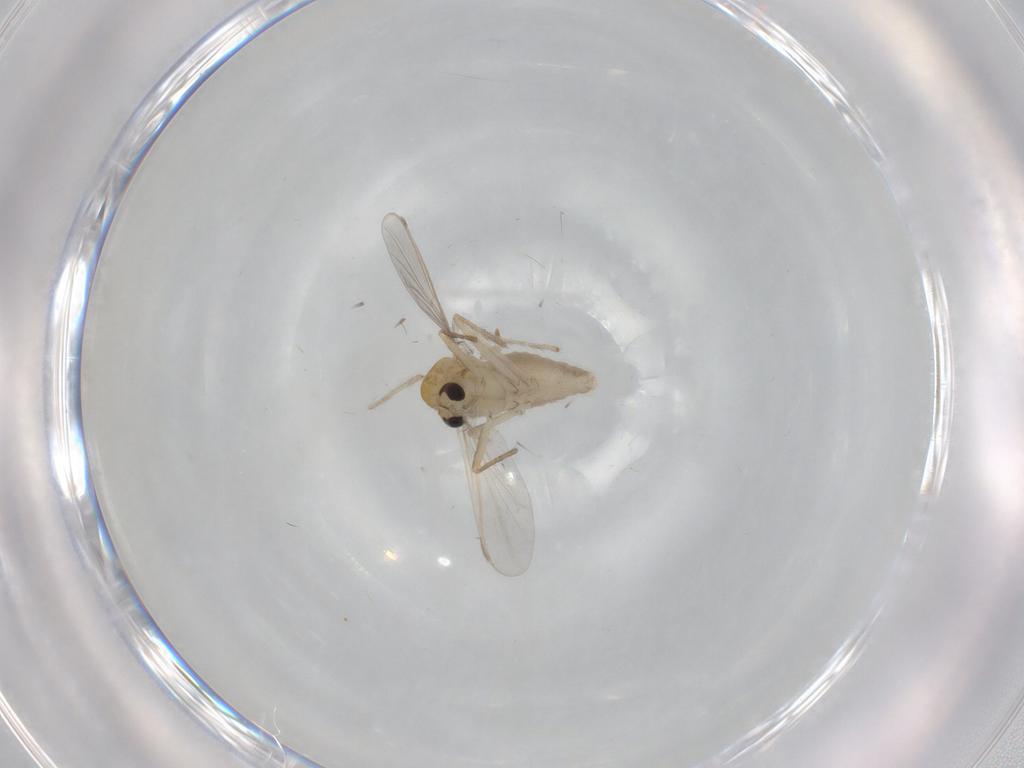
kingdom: Animalia
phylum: Arthropoda
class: Insecta
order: Diptera
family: Chironomidae
